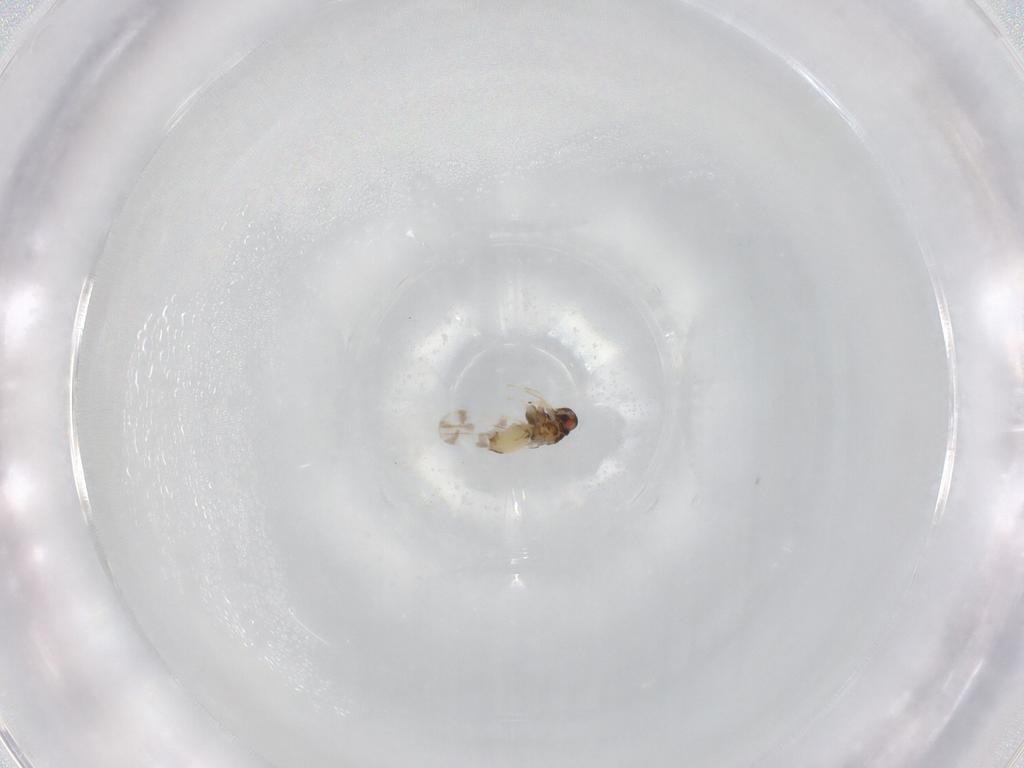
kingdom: Animalia
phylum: Arthropoda
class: Insecta
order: Hemiptera
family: Aleyrodidae
